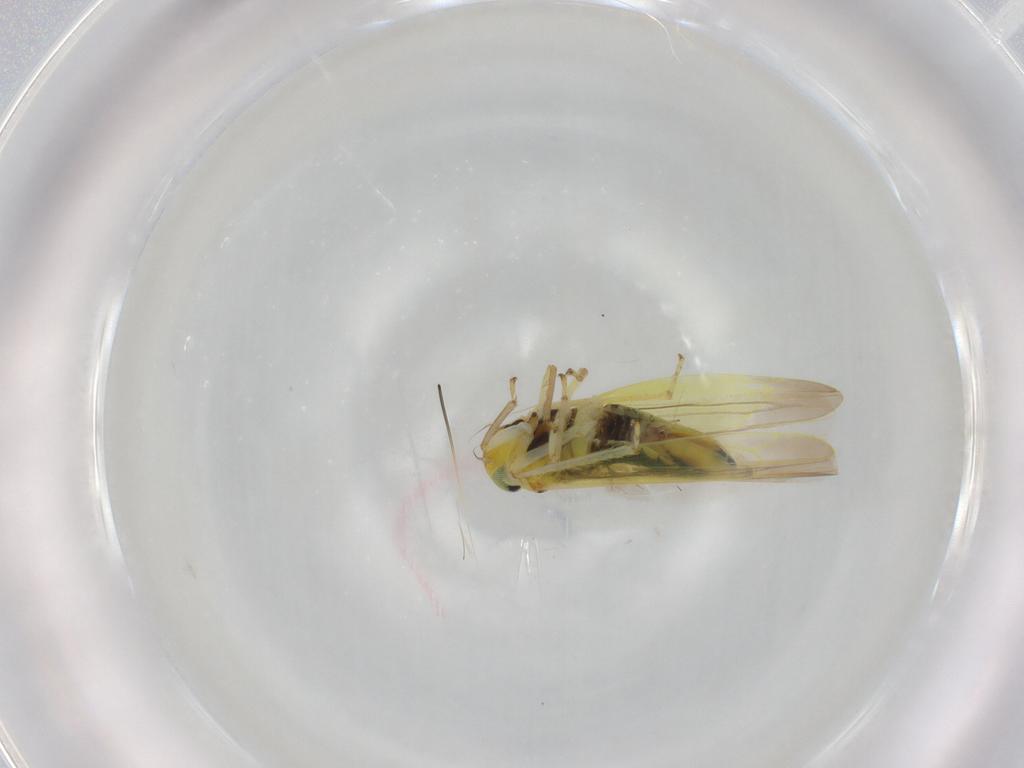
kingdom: Animalia
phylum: Arthropoda
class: Insecta
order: Hemiptera
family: Cicadellidae
